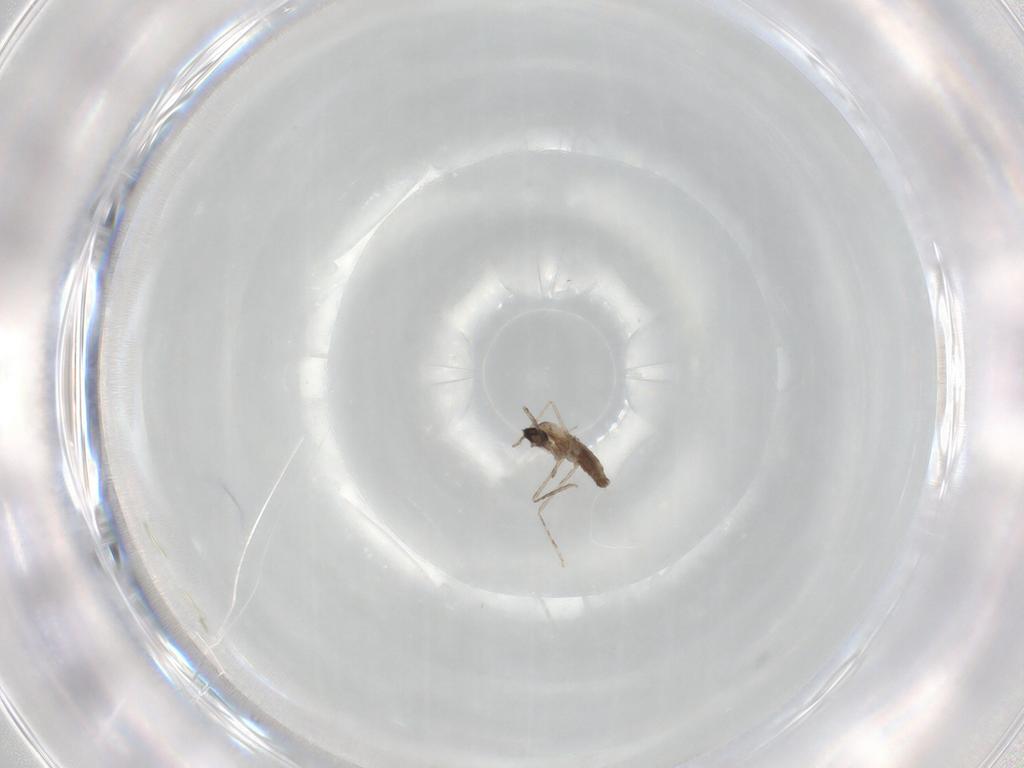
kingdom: Animalia
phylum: Arthropoda
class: Insecta
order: Diptera
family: Cecidomyiidae
